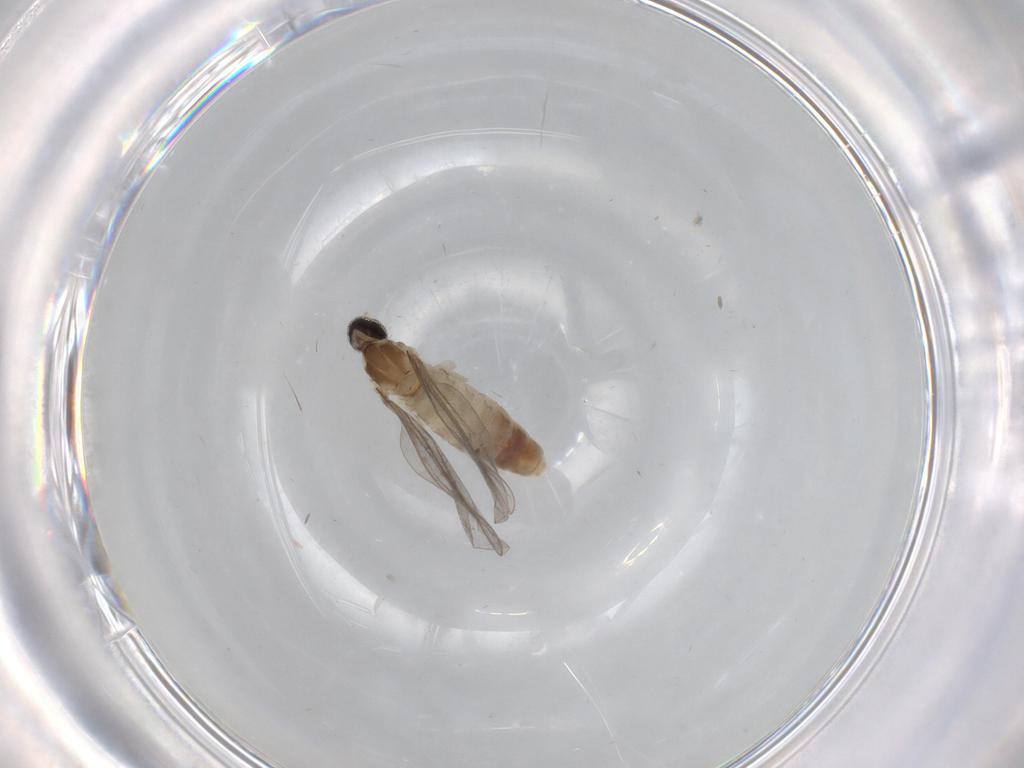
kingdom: Animalia
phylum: Arthropoda
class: Insecta
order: Diptera
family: Cecidomyiidae
